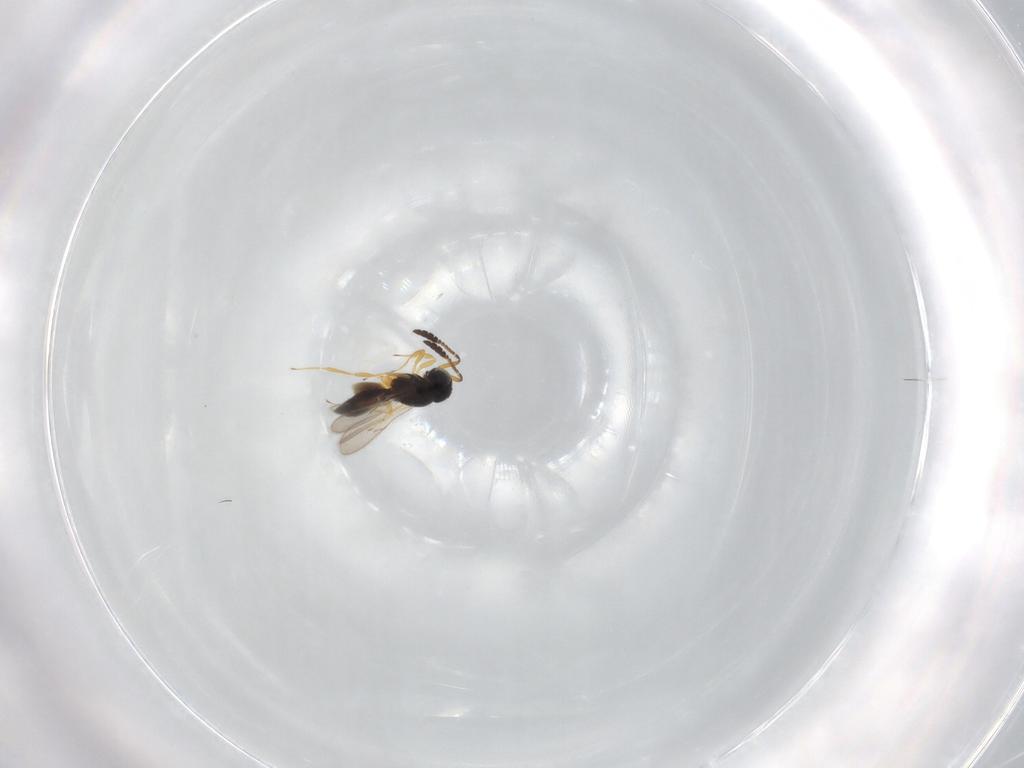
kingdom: Animalia
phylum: Arthropoda
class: Insecta
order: Hymenoptera
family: Scelionidae
